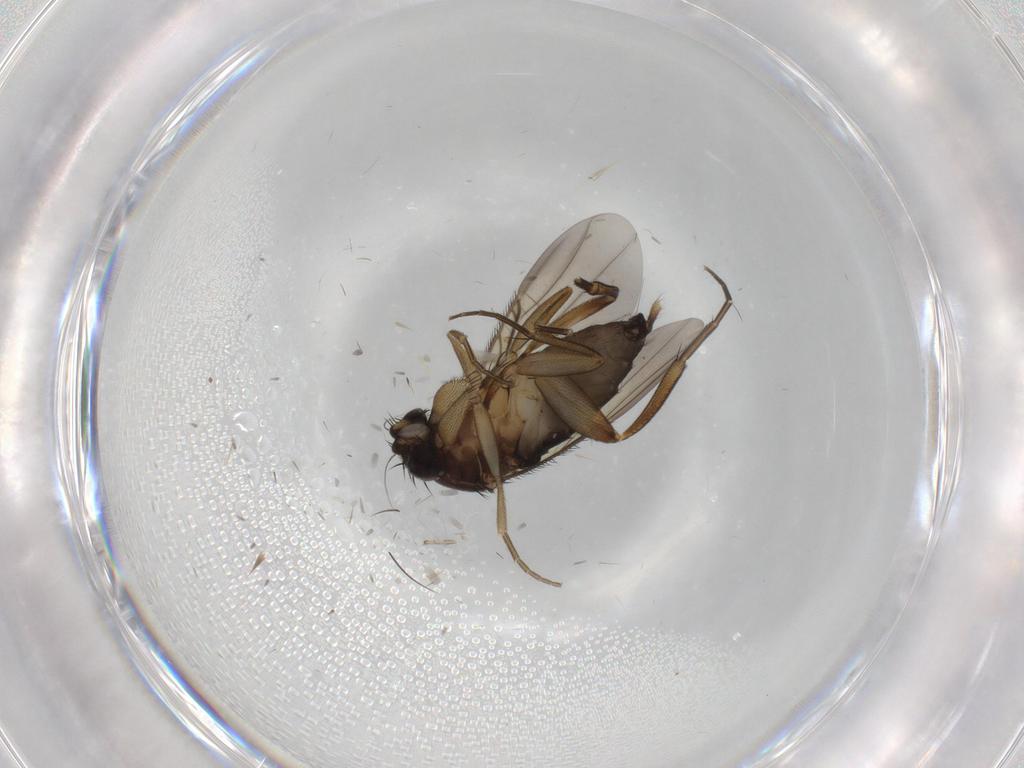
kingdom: Animalia
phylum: Arthropoda
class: Insecta
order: Diptera
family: Phoridae
